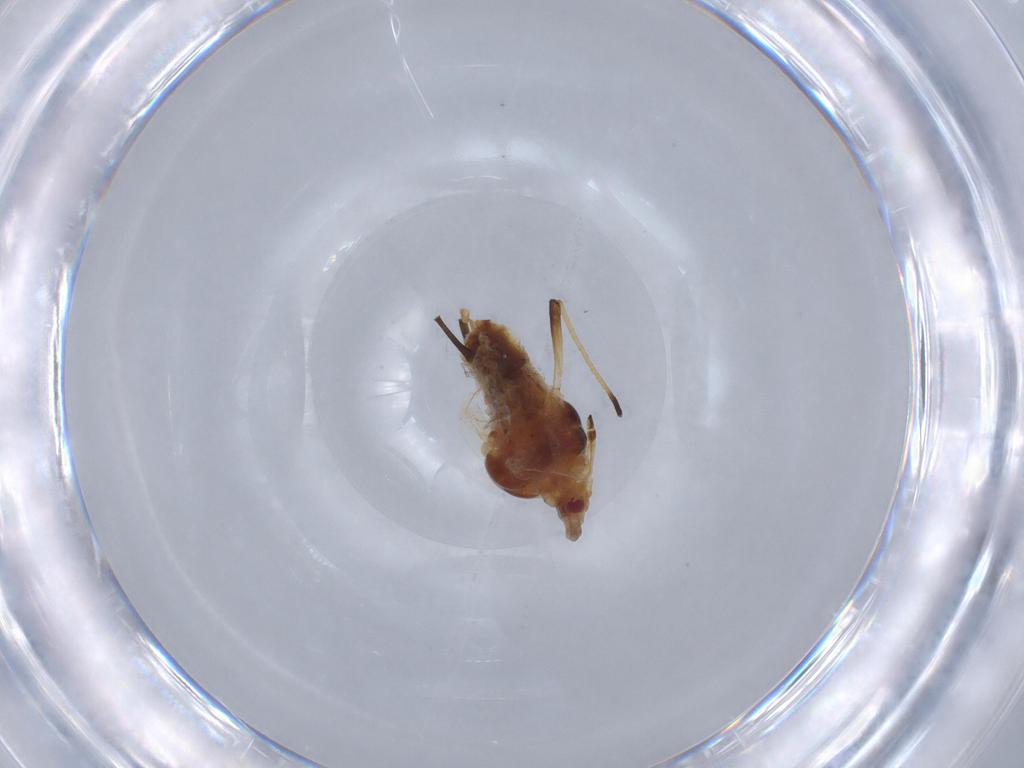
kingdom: Animalia
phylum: Arthropoda
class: Insecta
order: Hemiptera
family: Aphididae
